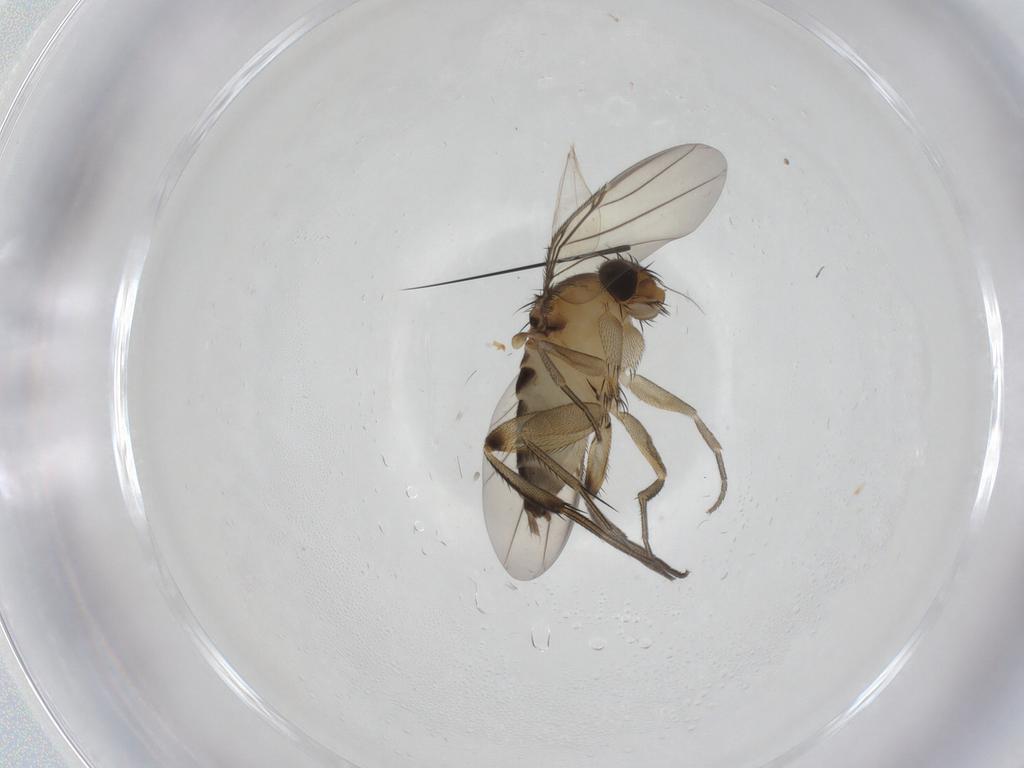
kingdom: Animalia
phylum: Arthropoda
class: Insecta
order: Diptera
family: Phoridae
